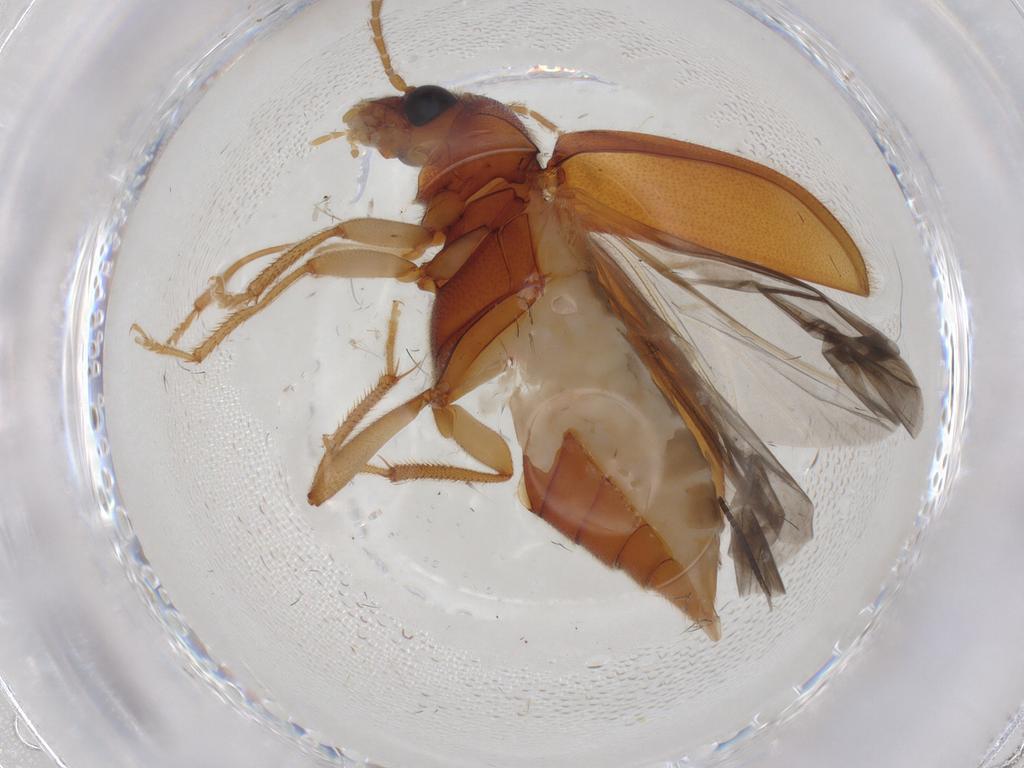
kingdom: Animalia
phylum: Arthropoda
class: Insecta
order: Coleoptera
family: Ptilodactylidae
